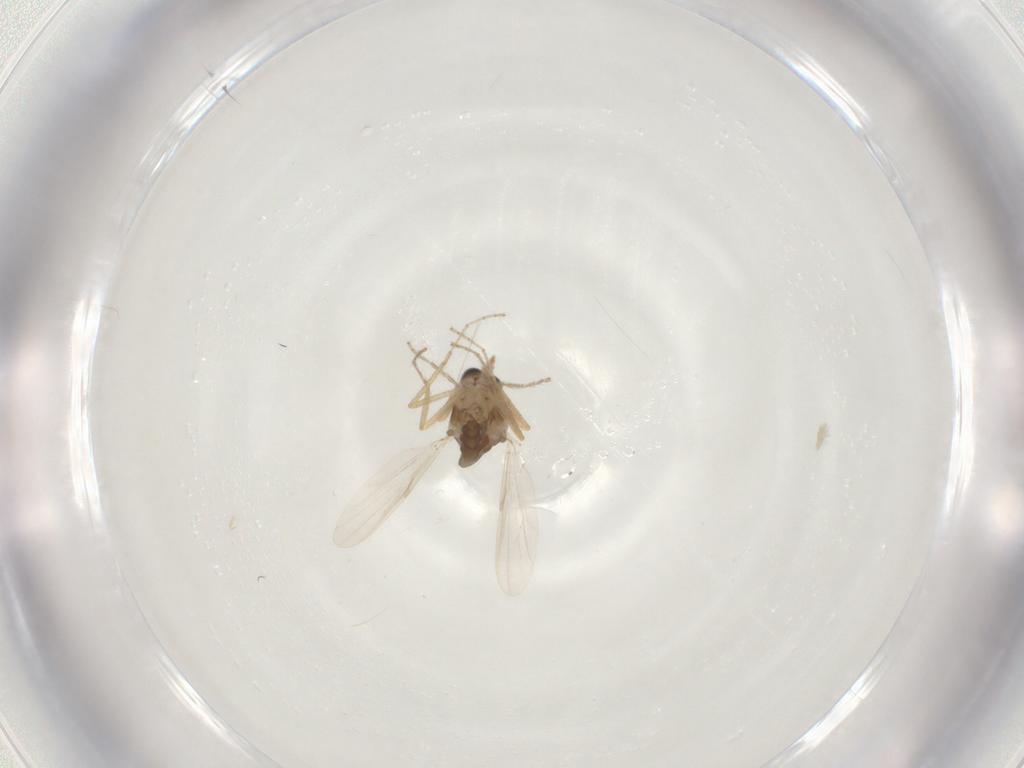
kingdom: Animalia
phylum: Arthropoda
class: Insecta
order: Diptera
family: Ceratopogonidae
